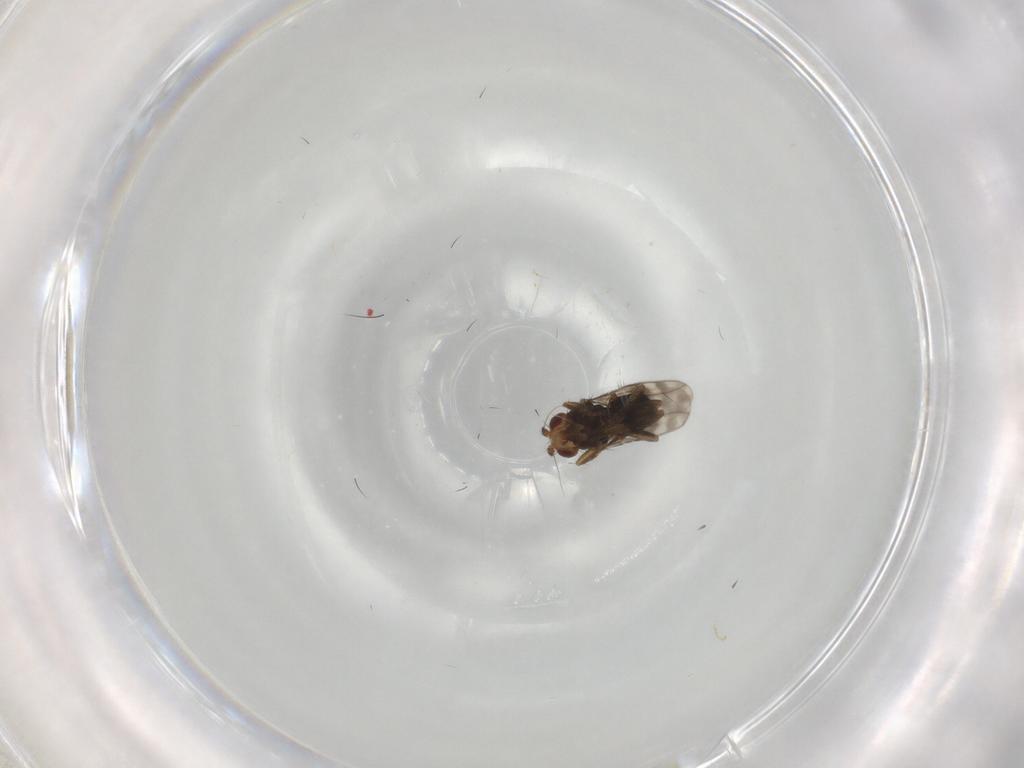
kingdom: Animalia
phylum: Arthropoda
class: Insecta
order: Diptera
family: Sphaeroceridae
